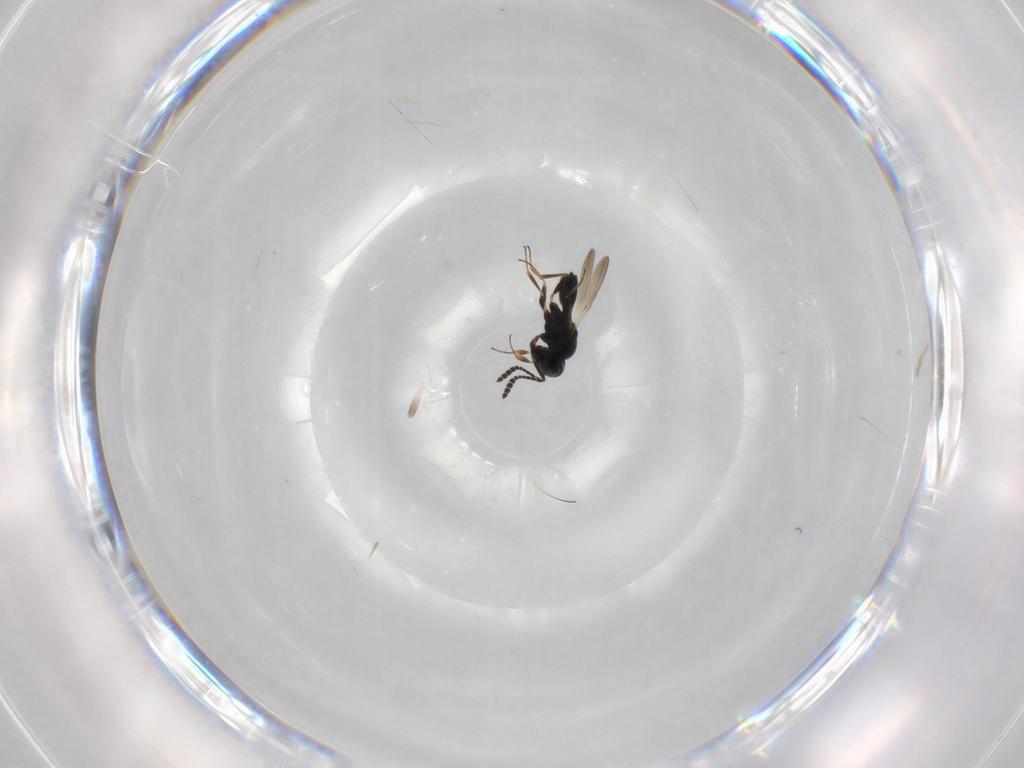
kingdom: Animalia
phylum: Arthropoda
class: Insecta
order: Hymenoptera
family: Scelionidae
